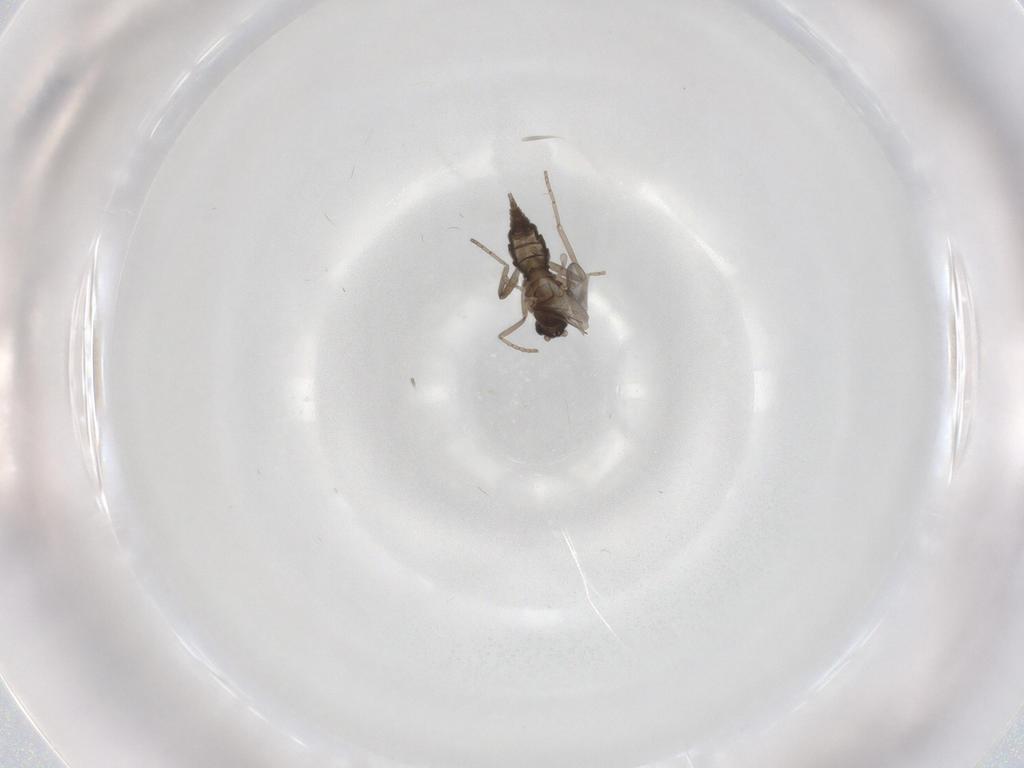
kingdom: Animalia
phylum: Arthropoda
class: Insecta
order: Diptera
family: Cecidomyiidae
